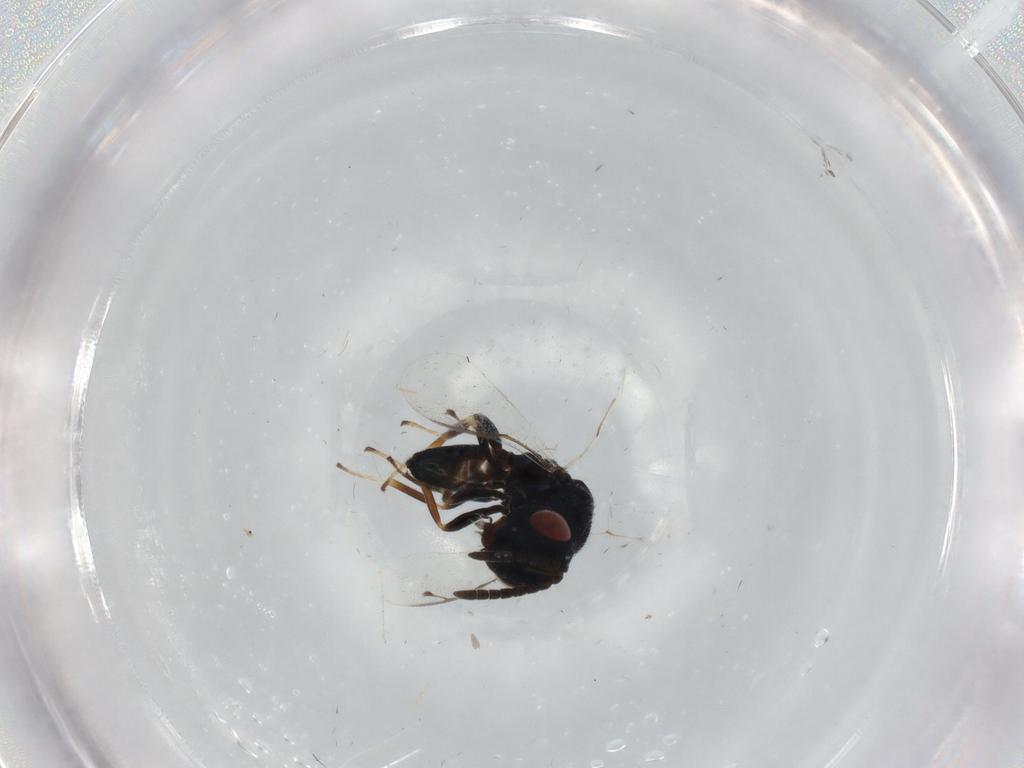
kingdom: Animalia
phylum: Arthropoda
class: Insecta
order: Hymenoptera
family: Pteromalidae
